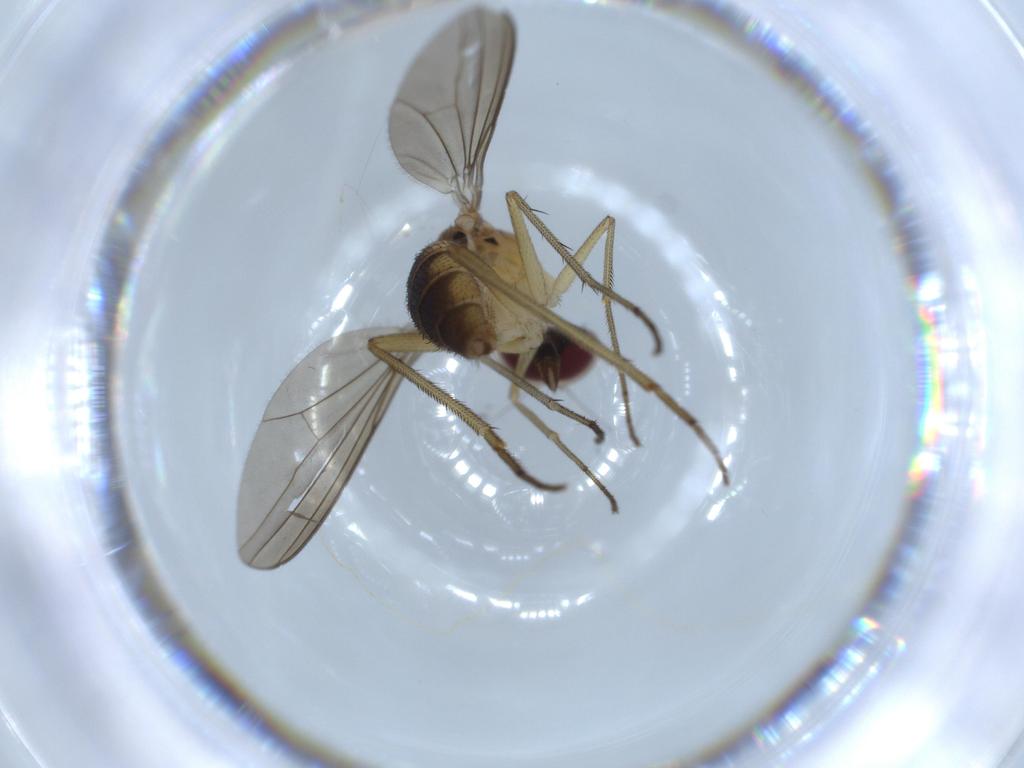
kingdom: Animalia
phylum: Arthropoda
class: Insecta
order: Diptera
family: Dolichopodidae
